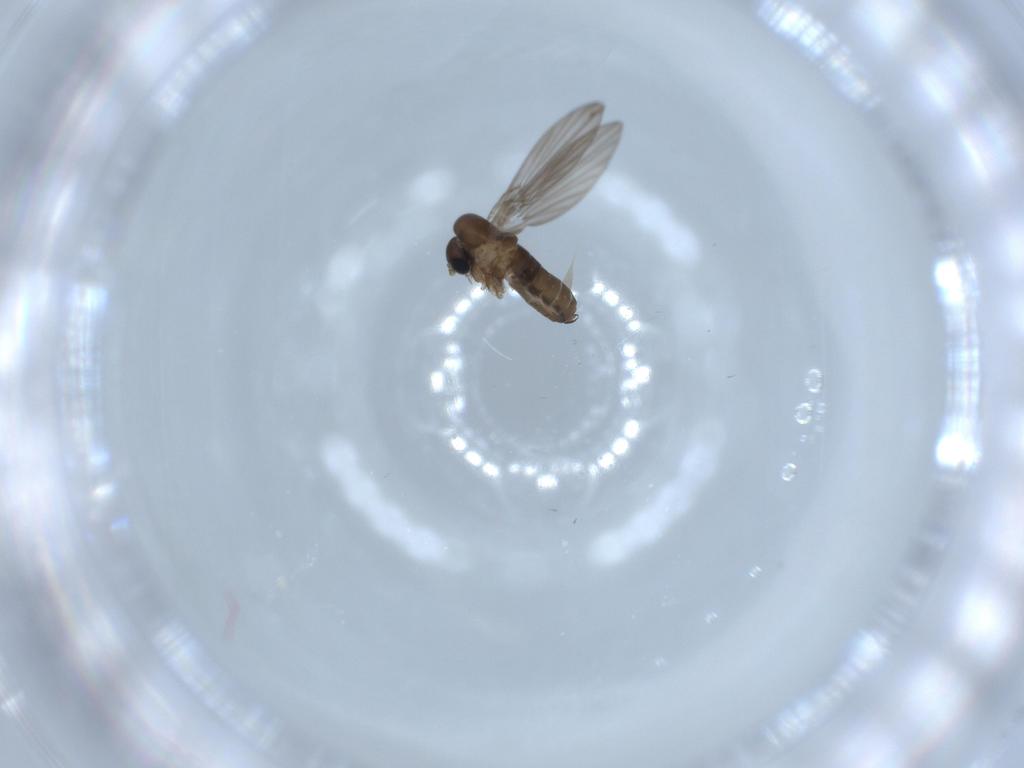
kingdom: Animalia
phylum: Arthropoda
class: Insecta
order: Diptera
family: Psychodidae
